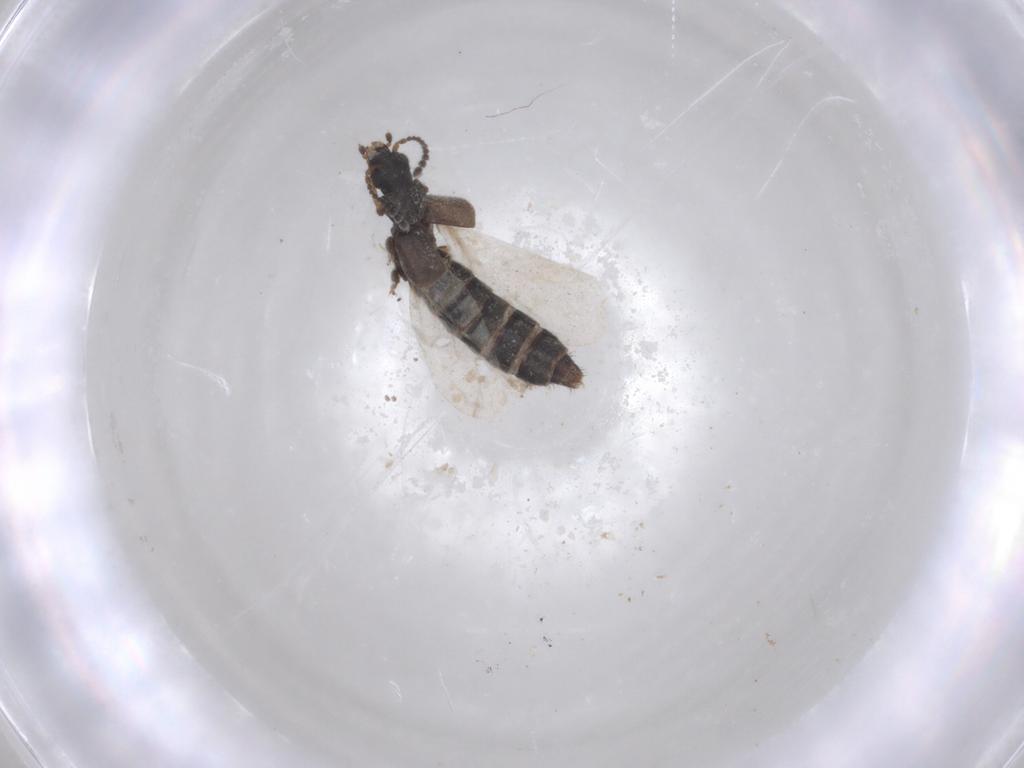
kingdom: Animalia
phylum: Arthropoda
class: Insecta
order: Coleoptera
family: Staphylinidae
